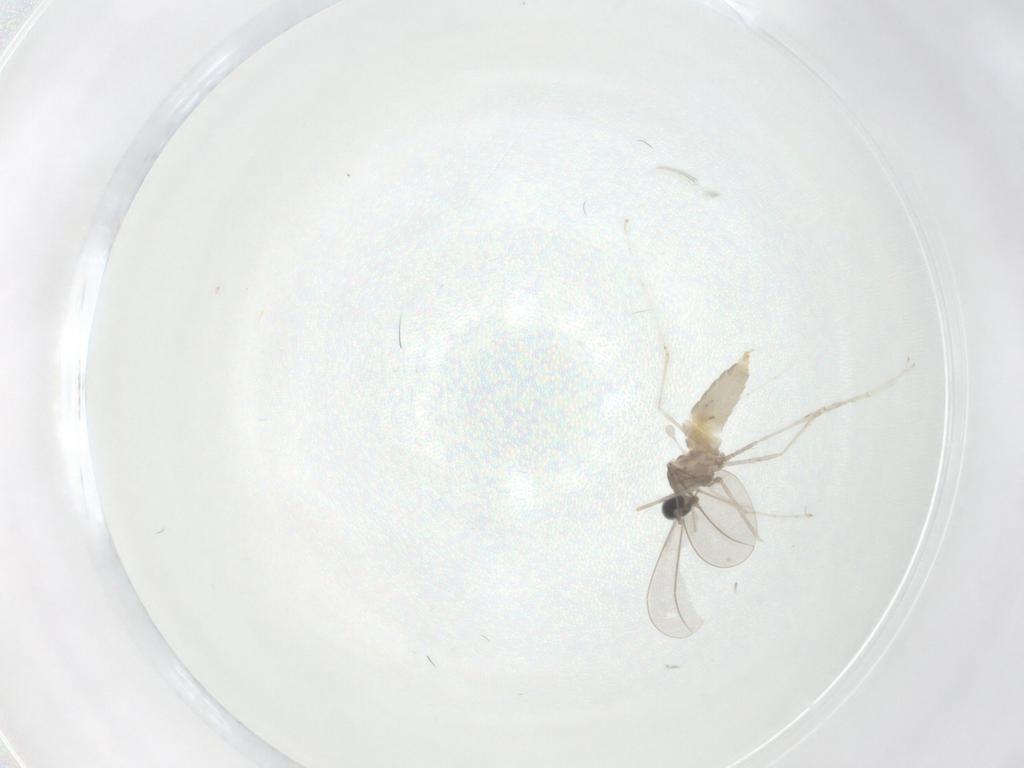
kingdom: Animalia
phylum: Arthropoda
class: Insecta
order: Diptera
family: Cecidomyiidae
